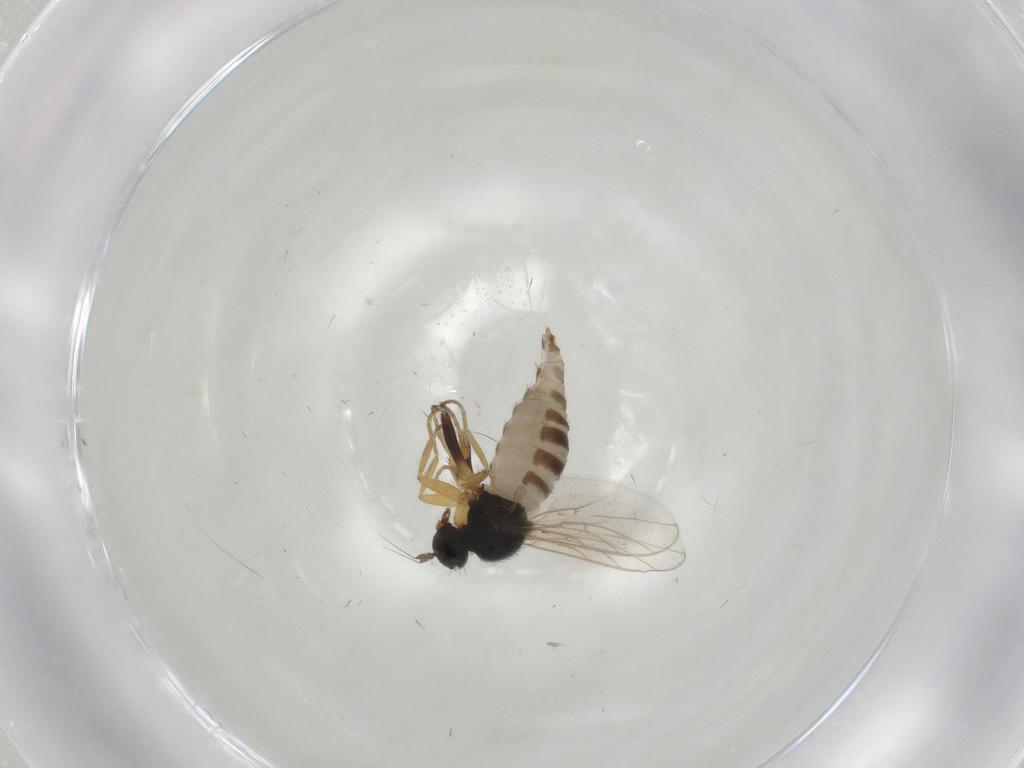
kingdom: Animalia
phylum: Arthropoda
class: Insecta
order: Diptera
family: Hybotidae
